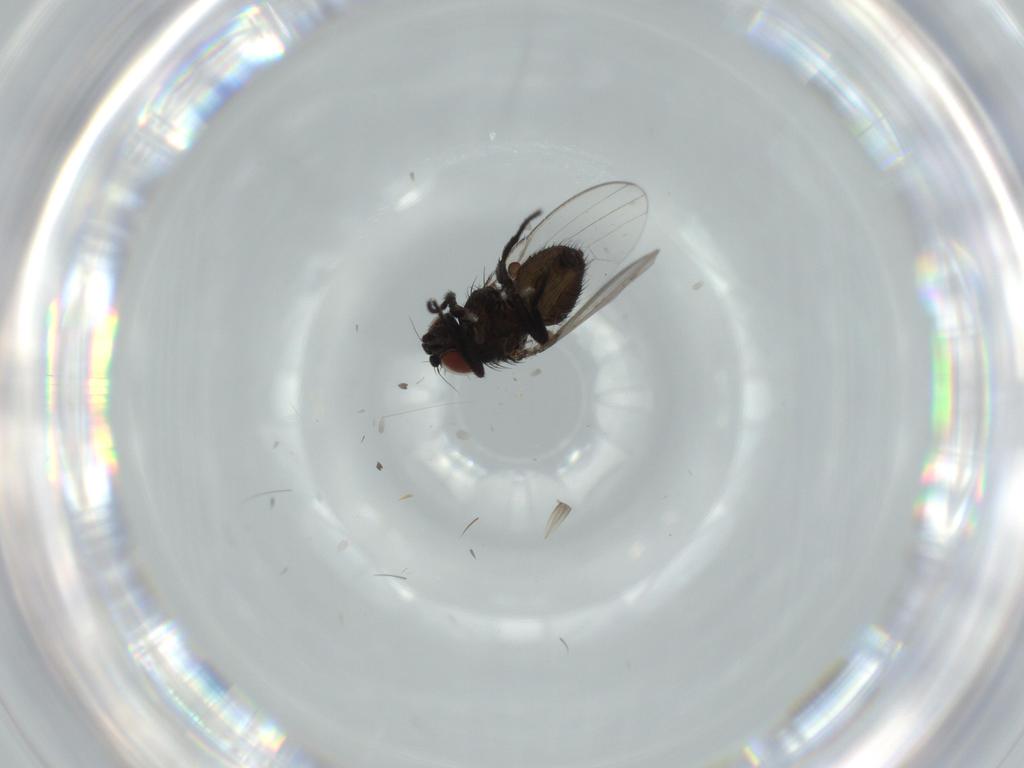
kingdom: Animalia
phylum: Arthropoda
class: Insecta
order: Diptera
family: Milichiidae
